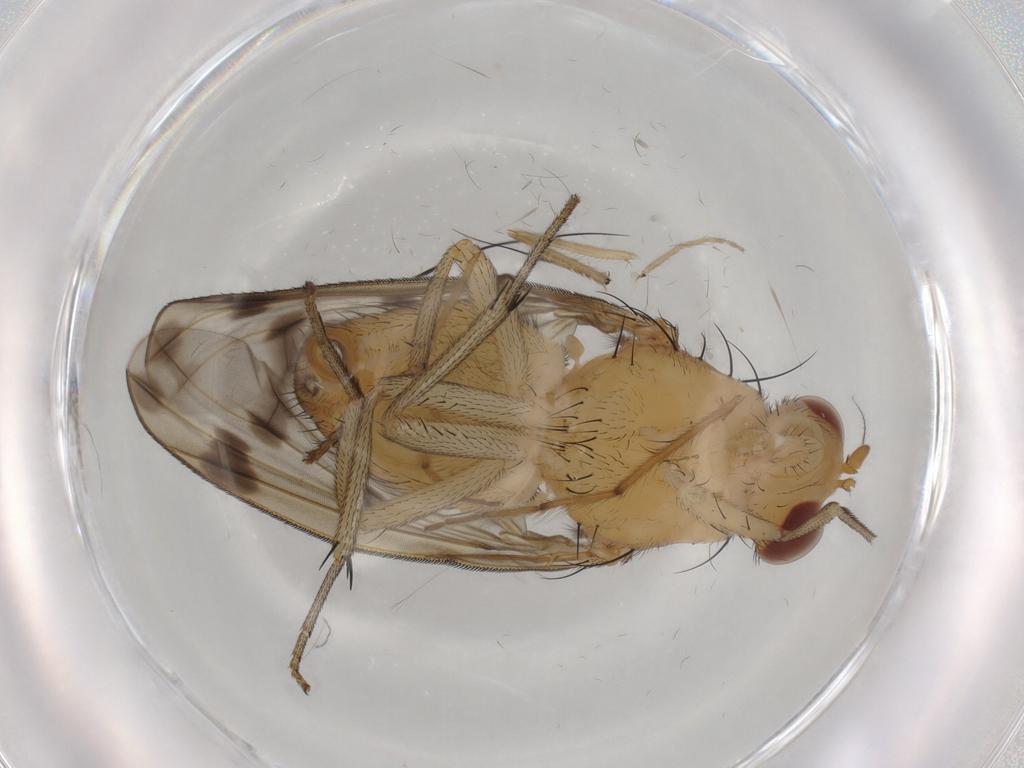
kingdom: Animalia
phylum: Arthropoda
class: Insecta
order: Diptera
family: Lauxaniidae
